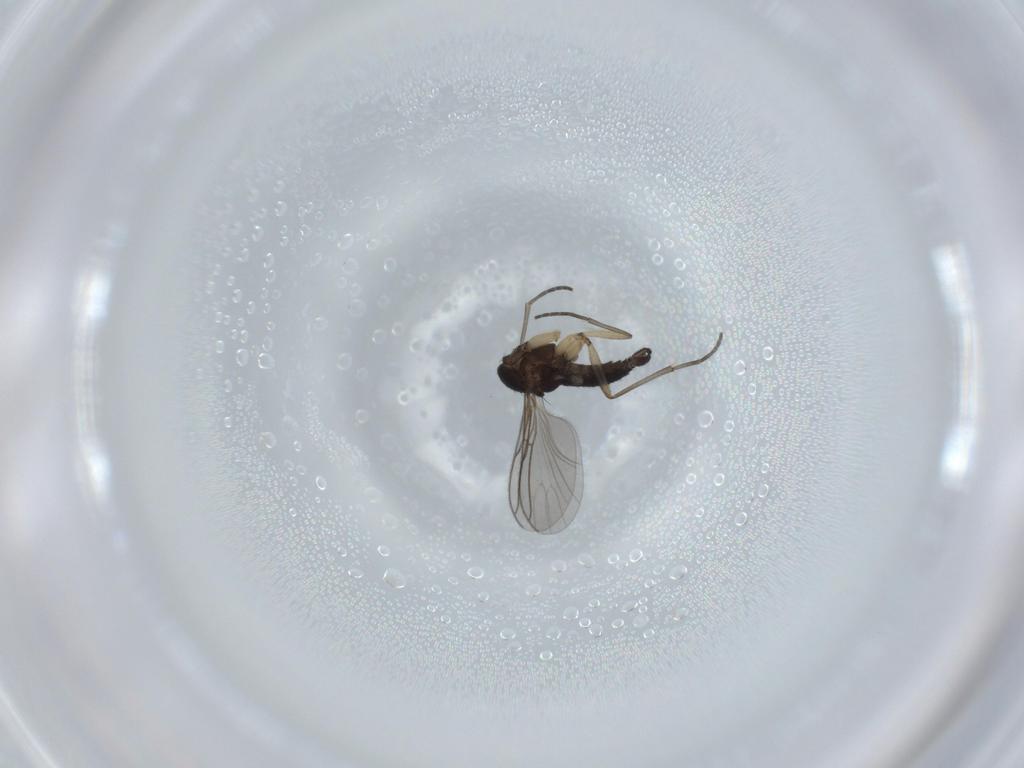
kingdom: Animalia
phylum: Arthropoda
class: Insecta
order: Diptera
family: Sciaridae
